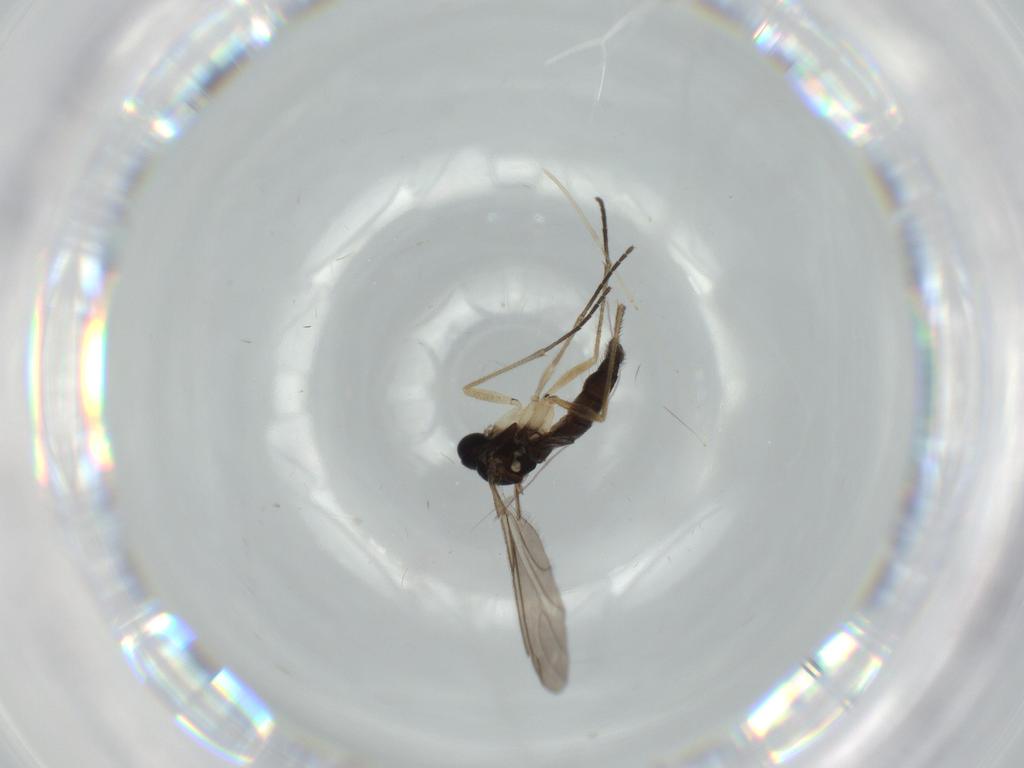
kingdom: Animalia
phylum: Arthropoda
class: Insecta
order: Diptera
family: Sciaridae
